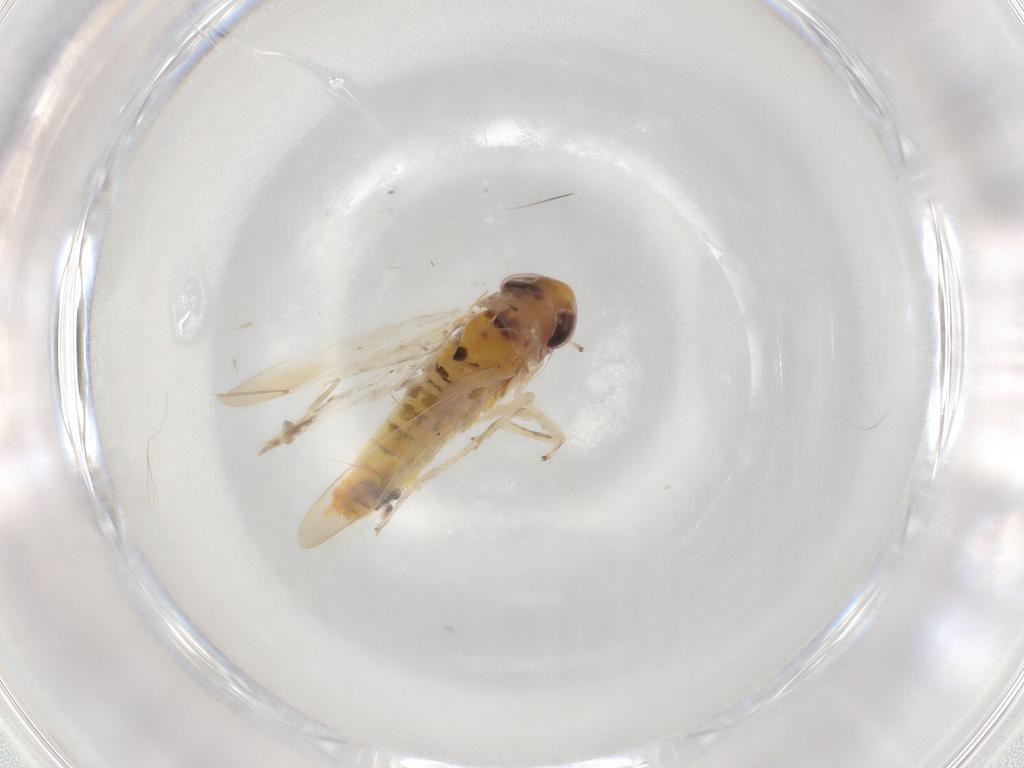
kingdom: Animalia
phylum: Arthropoda
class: Insecta
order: Hemiptera
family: Cicadellidae
